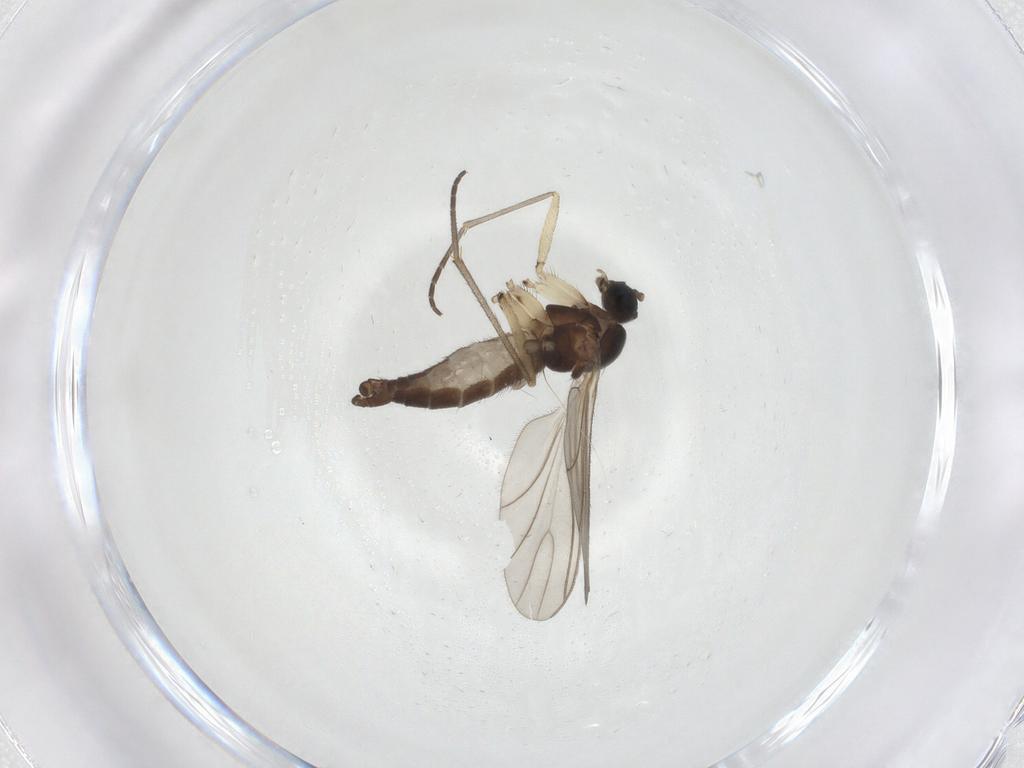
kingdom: Animalia
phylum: Arthropoda
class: Insecta
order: Diptera
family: Sciaridae
